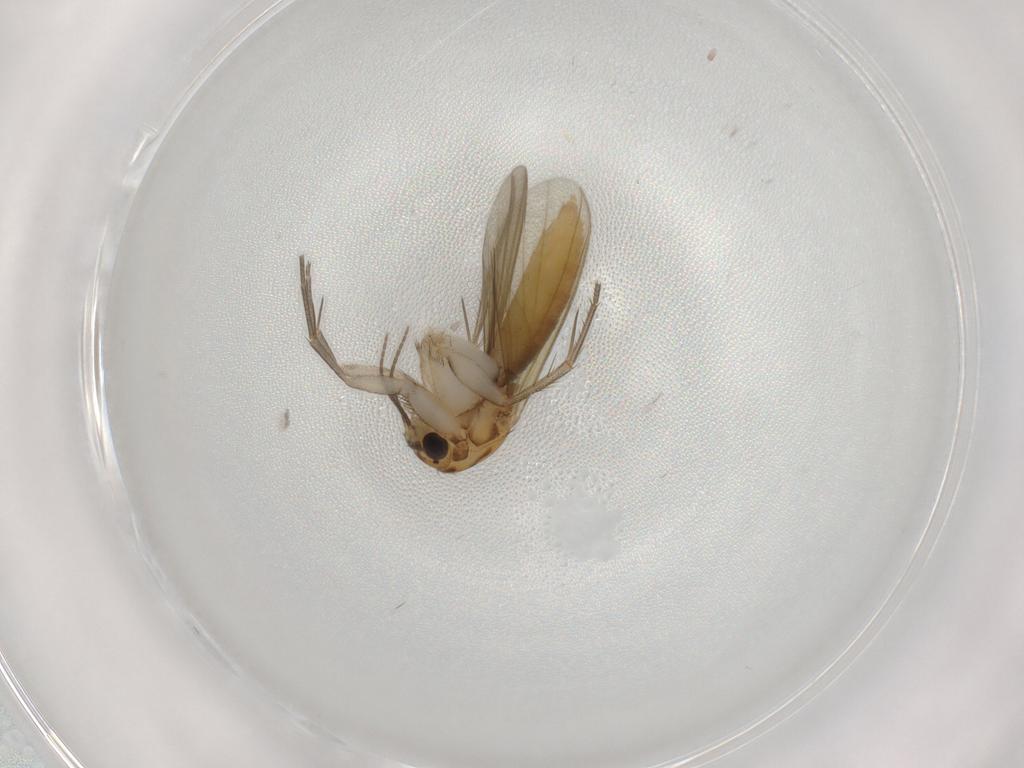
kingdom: Animalia
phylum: Arthropoda
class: Insecta
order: Diptera
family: Mycetophilidae
